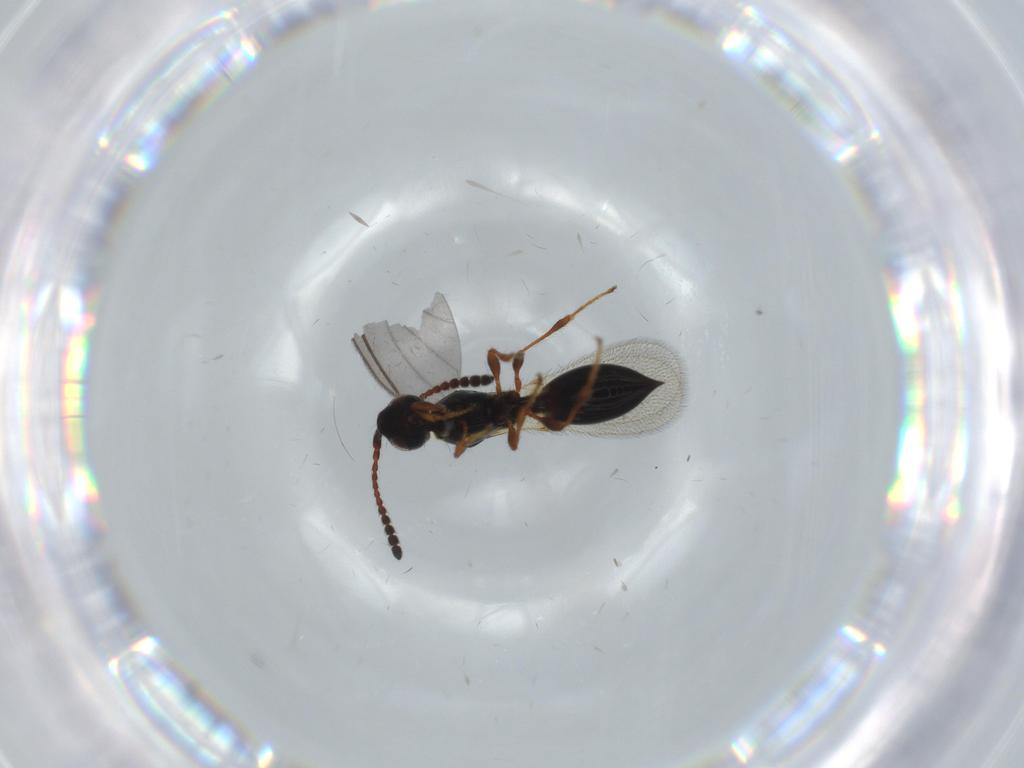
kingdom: Animalia
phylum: Arthropoda
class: Insecta
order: Hymenoptera
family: Diapriidae
